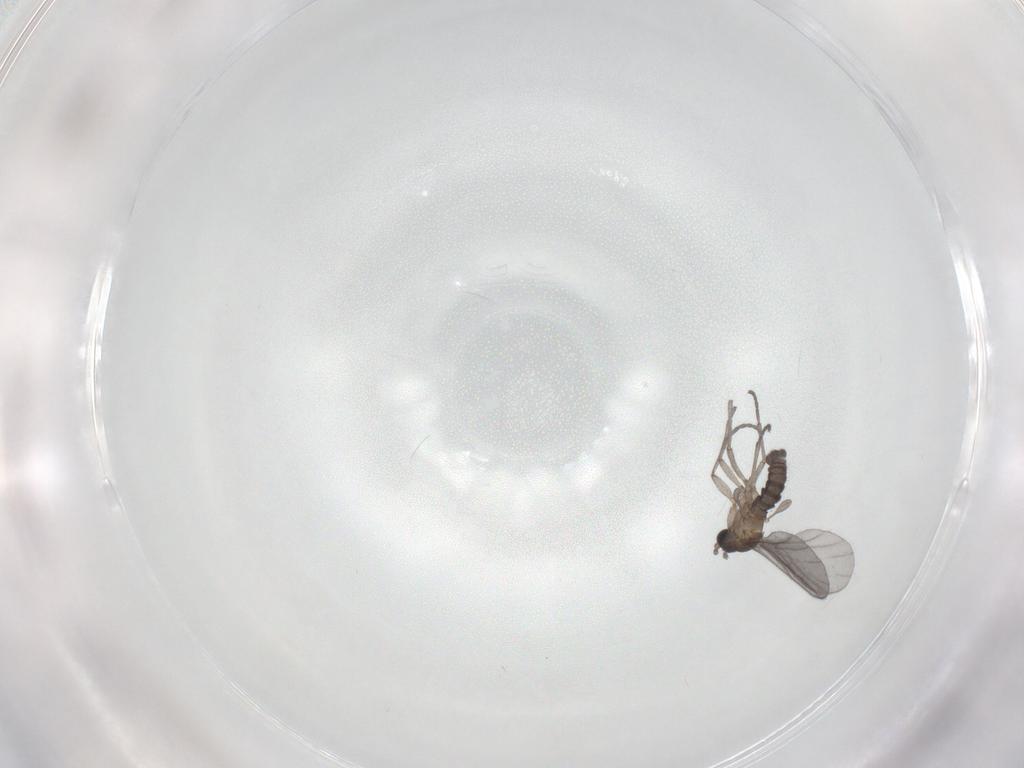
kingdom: Animalia
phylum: Arthropoda
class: Insecta
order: Diptera
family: Sciaridae
